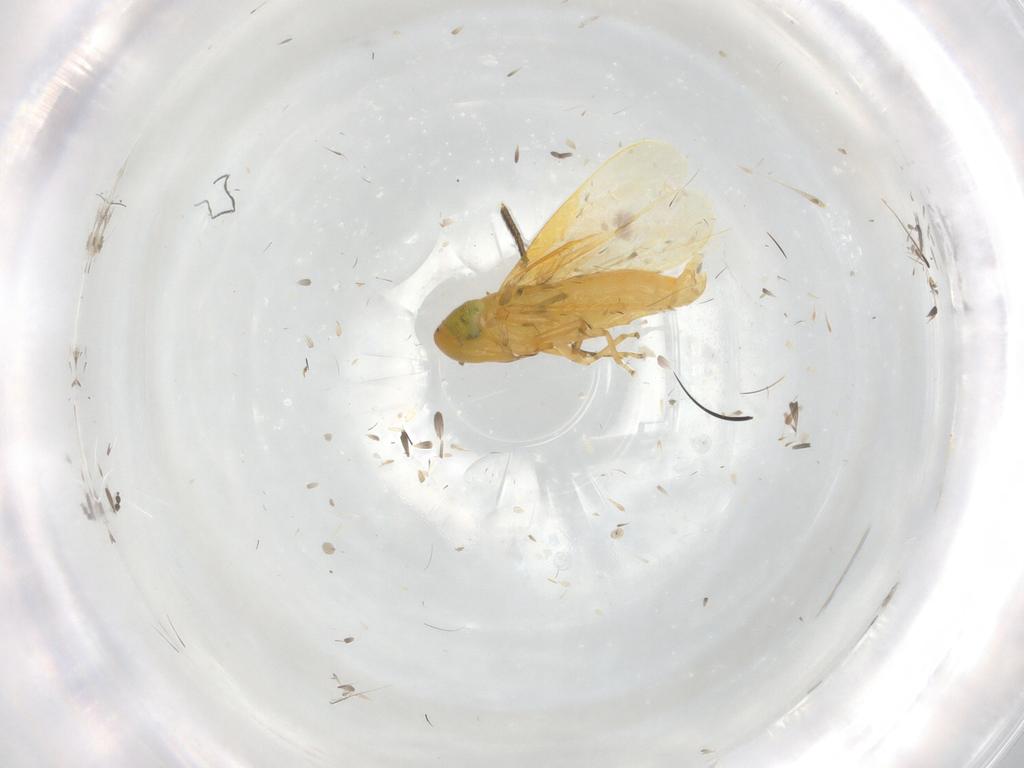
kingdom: Animalia
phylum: Arthropoda
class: Insecta
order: Hemiptera
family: Cicadellidae
